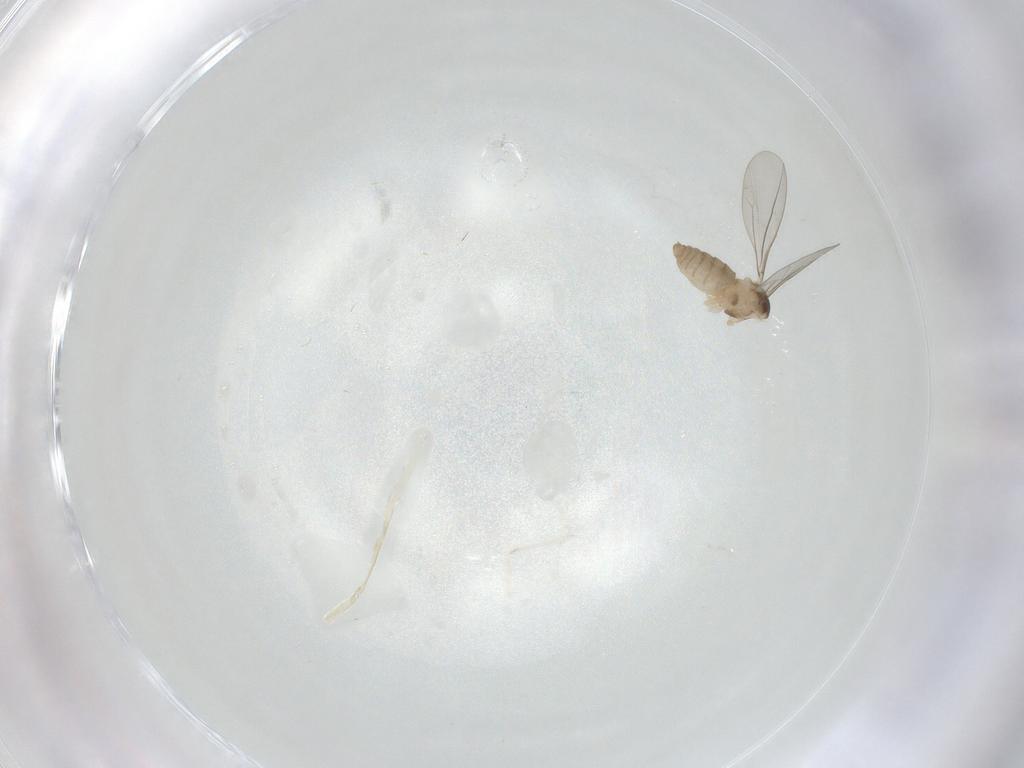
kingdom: Animalia
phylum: Arthropoda
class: Insecta
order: Diptera
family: Cecidomyiidae
